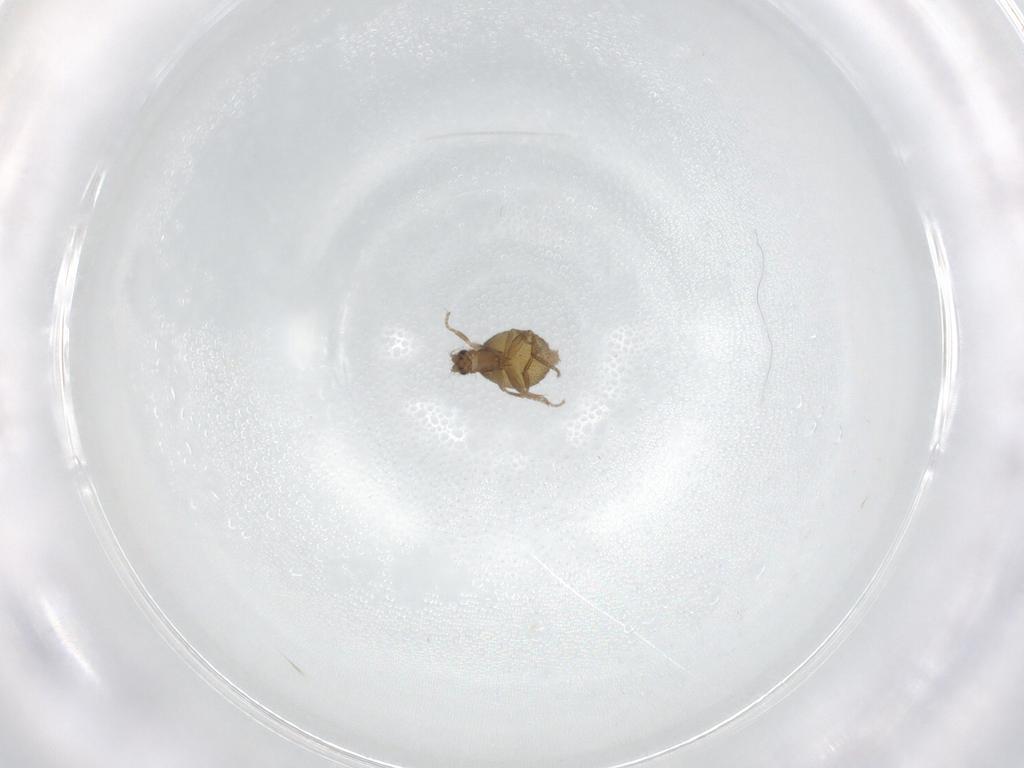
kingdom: Animalia
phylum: Arthropoda
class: Insecta
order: Diptera
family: Phoridae
